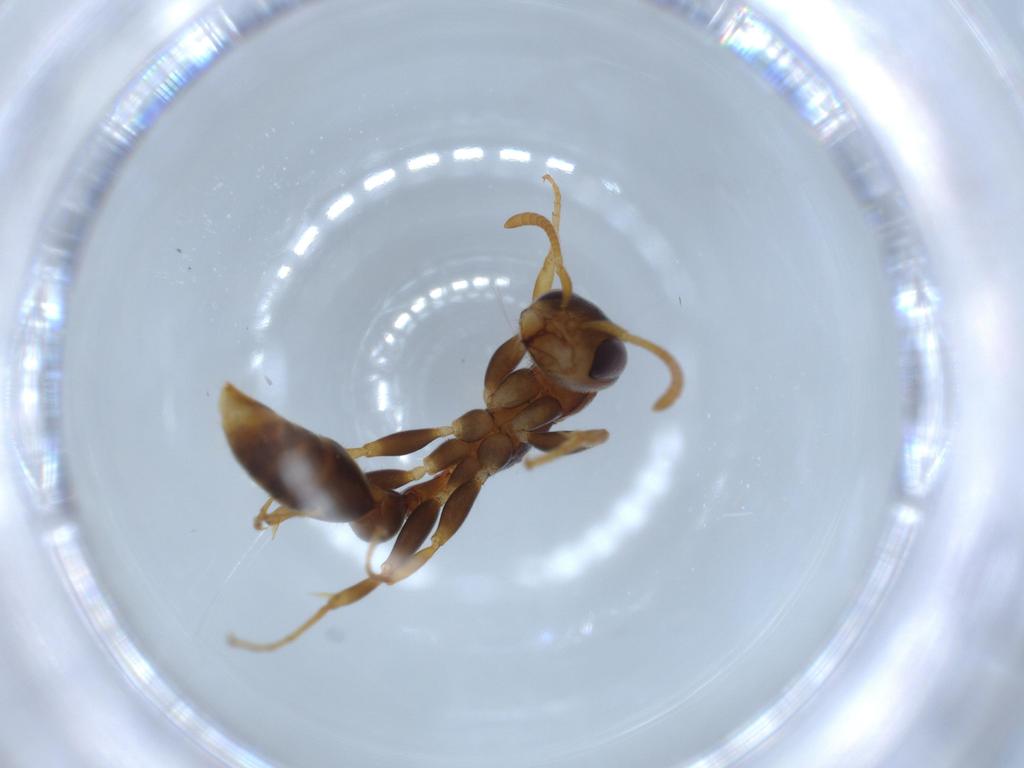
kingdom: Animalia
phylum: Arthropoda
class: Insecta
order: Hymenoptera
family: Formicidae
